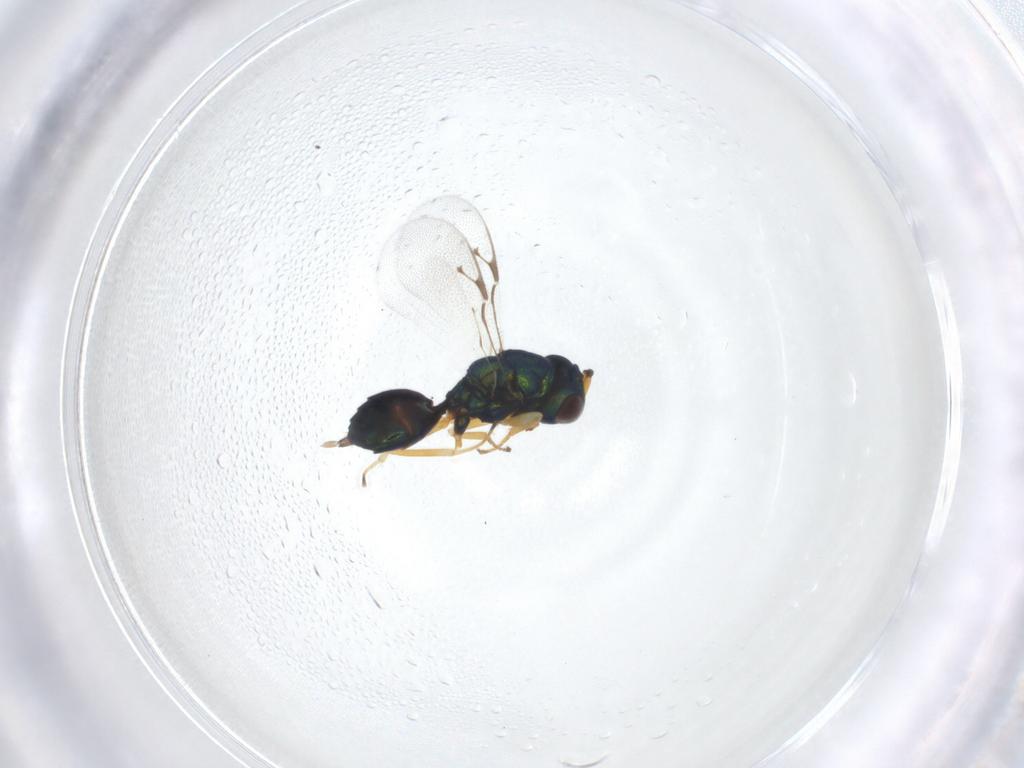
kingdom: Animalia
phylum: Arthropoda
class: Insecta
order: Hymenoptera
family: Pteromalidae
